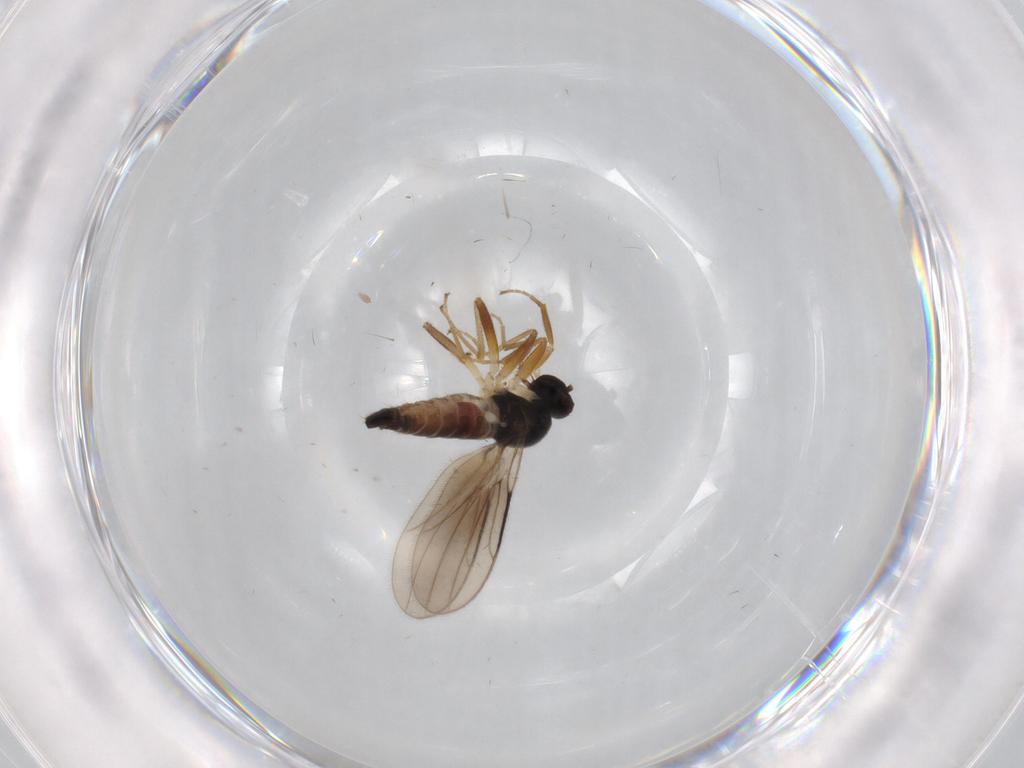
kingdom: Animalia
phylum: Arthropoda
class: Insecta
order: Diptera
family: Hybotidae
